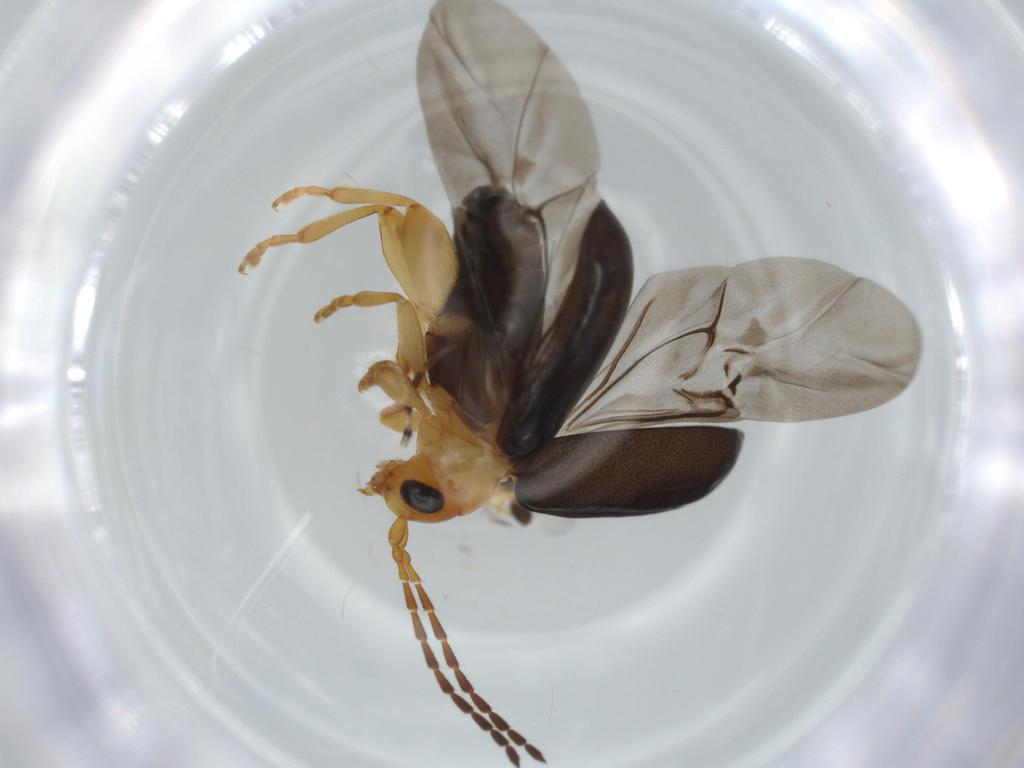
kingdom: Animalia
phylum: Arthropoda
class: Insecta
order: Coleoptera
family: Chrysomelidae
